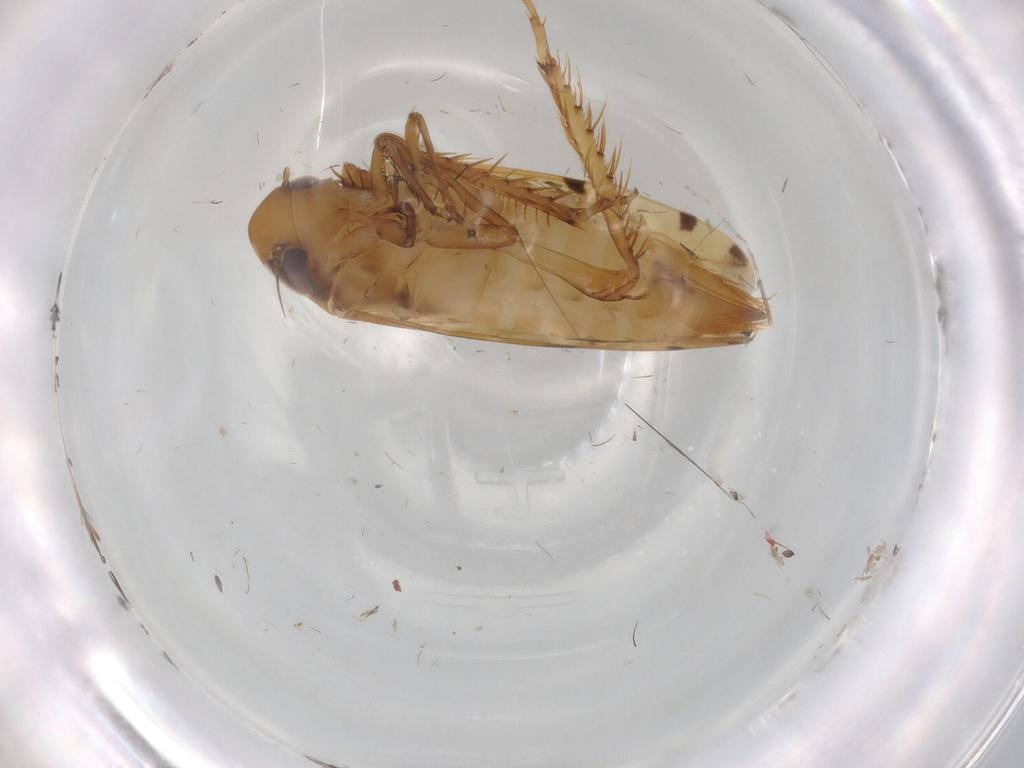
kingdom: Animalia
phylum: Arthropoda
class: Insecta
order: Hemiptera
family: Cicadellidae
